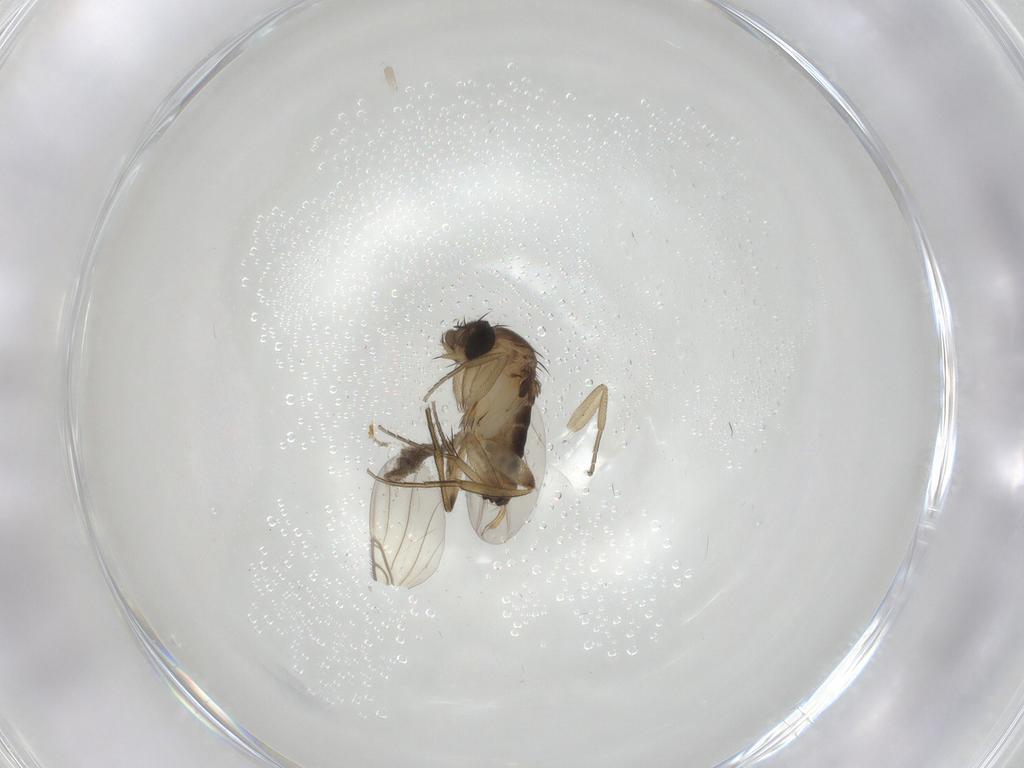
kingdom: Animalia
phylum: Arthropoda
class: Insecta
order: Diptera
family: Phoridae
